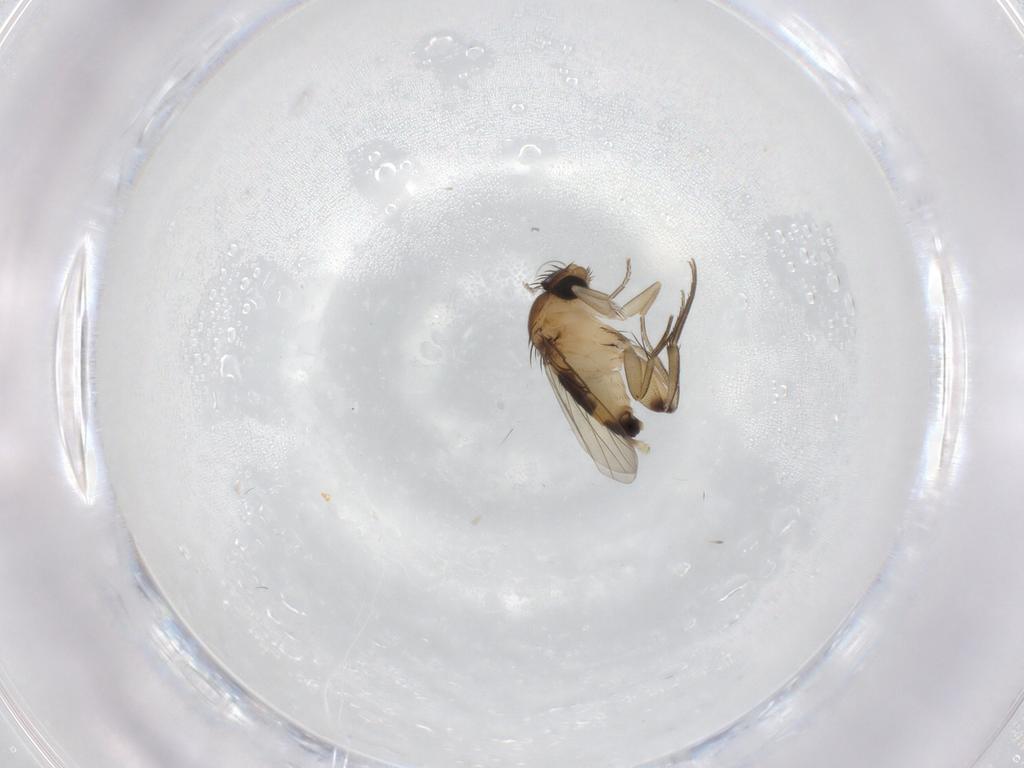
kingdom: Animalia
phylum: Arthropoda
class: Insecta
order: Diptera
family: Phoridae
